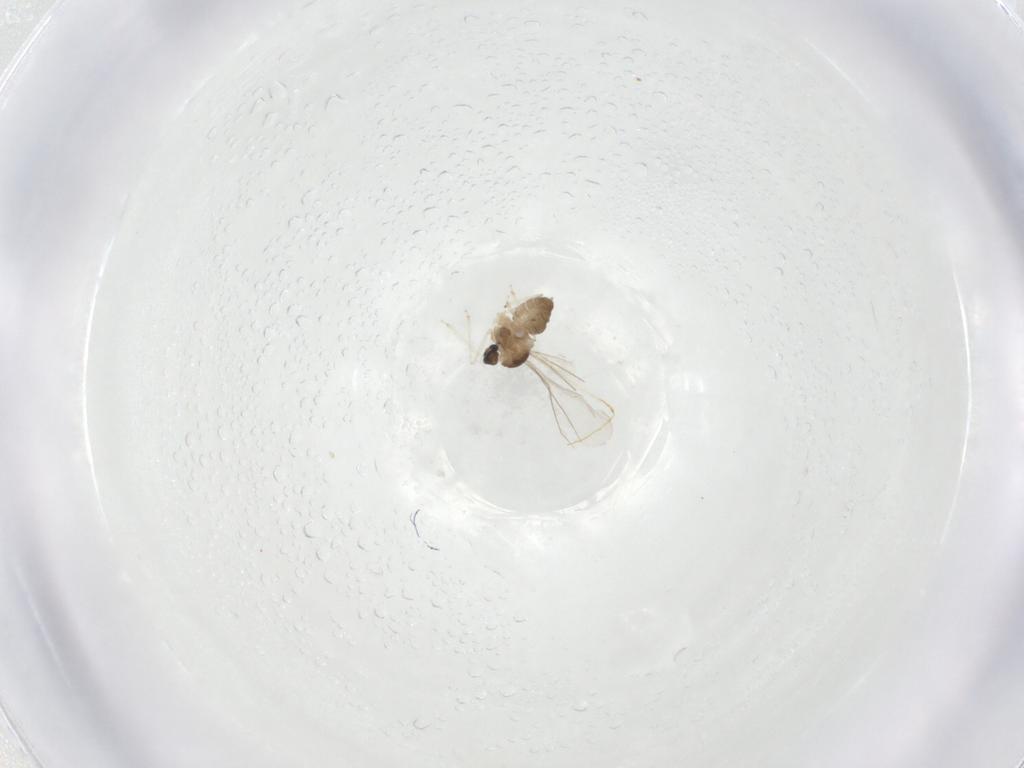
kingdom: Animalia
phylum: Arthropoda
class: Insecta
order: Diptera
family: Cecidomyiidae
